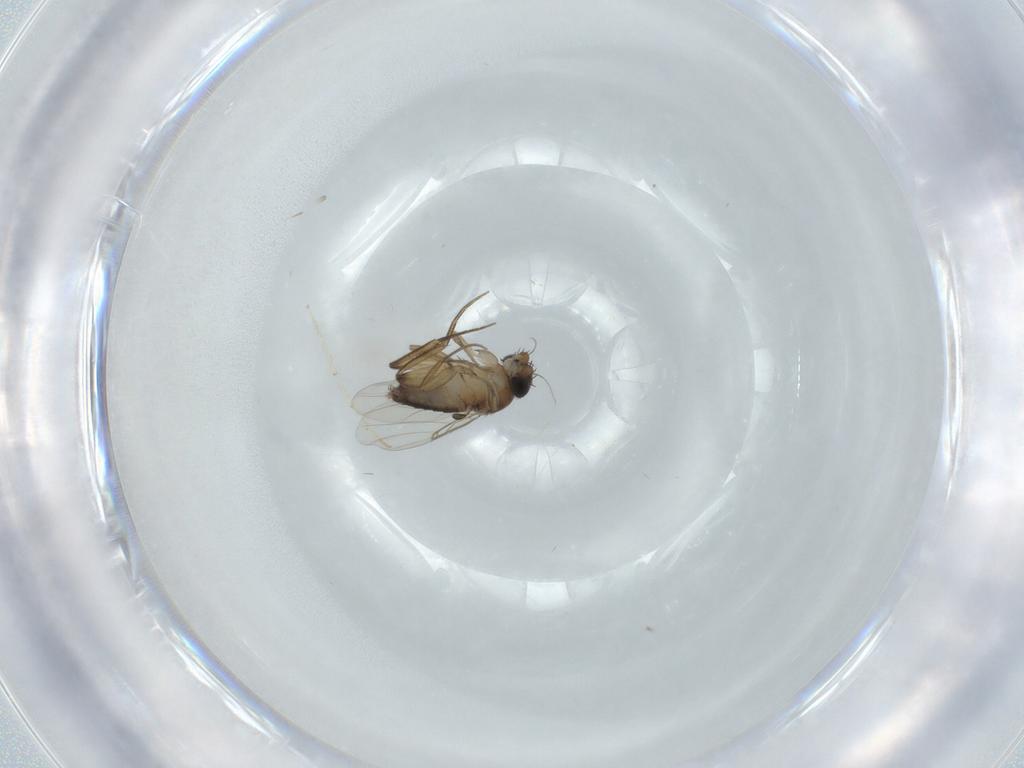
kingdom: Animalia
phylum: Arthropoda
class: Insecta
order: Diptera
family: Phoridae
